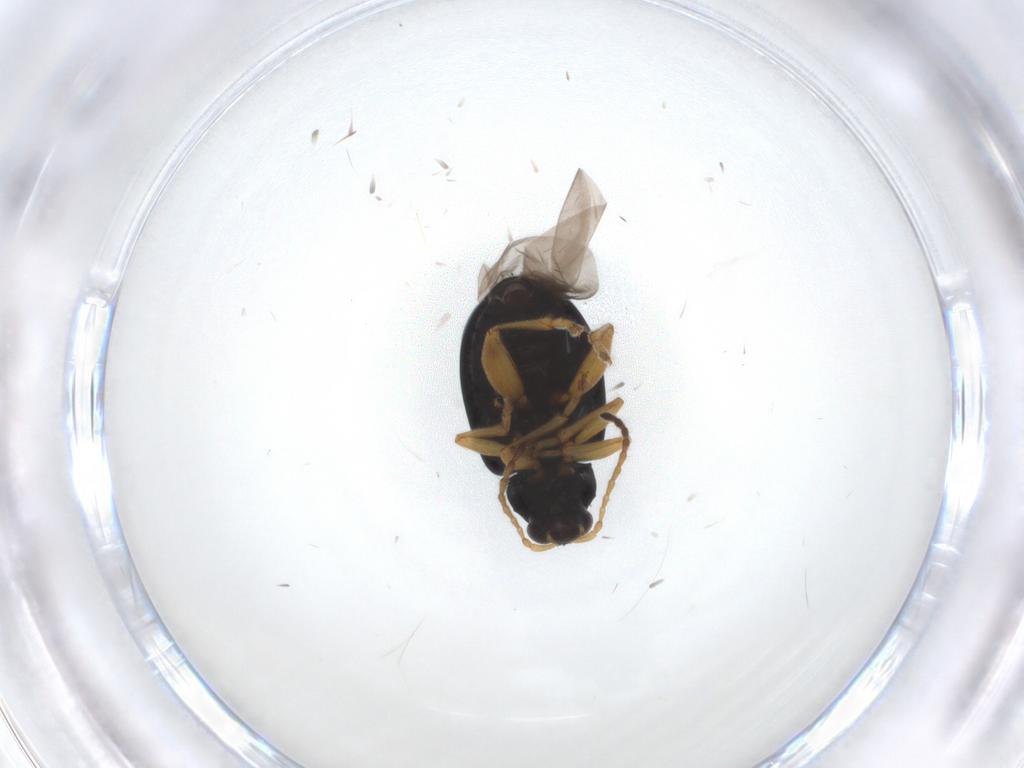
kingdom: Animalia
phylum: Arthropoda
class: Insecta
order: Coleoptera
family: Chrysomelidae
